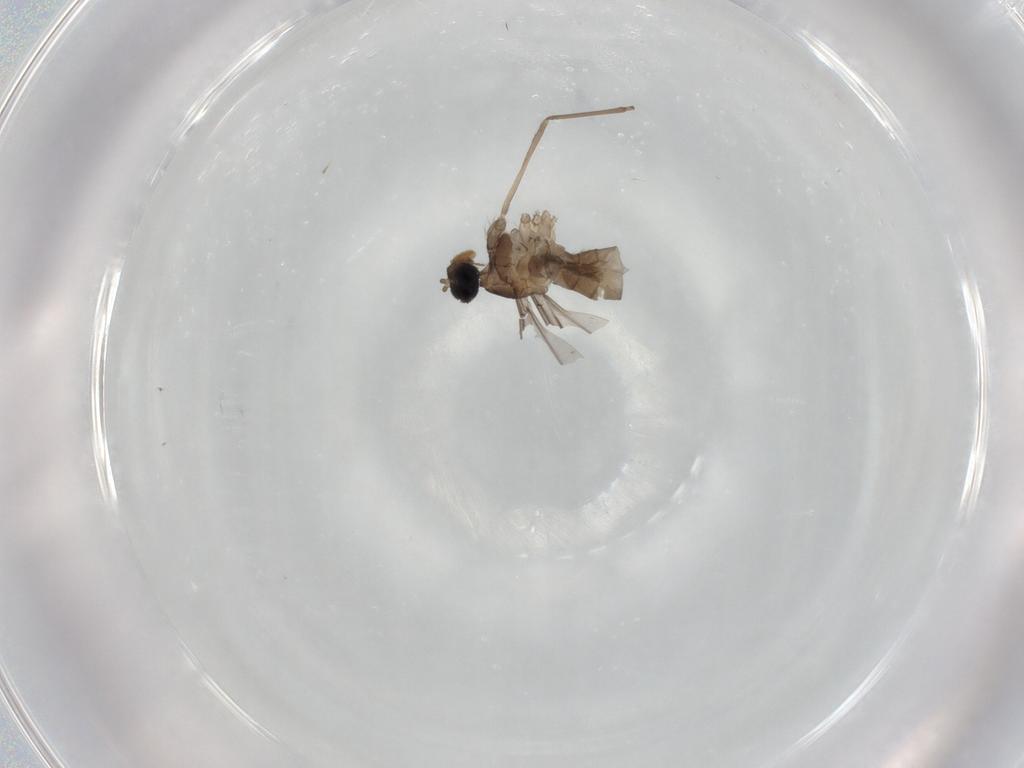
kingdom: Animalia
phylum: Arthropoda
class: Insecta
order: Diptera
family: Cecidomyiidae
